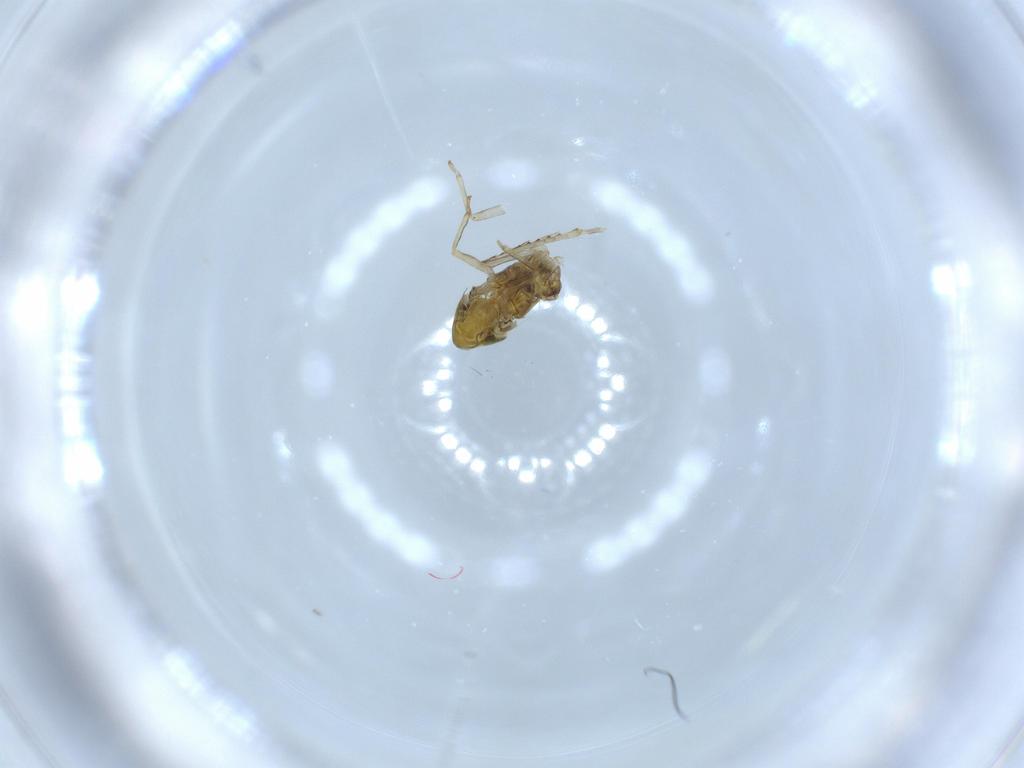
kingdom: Animalia
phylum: Arthropoda
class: Insecta
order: Hemiptera
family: Cicadellidae
